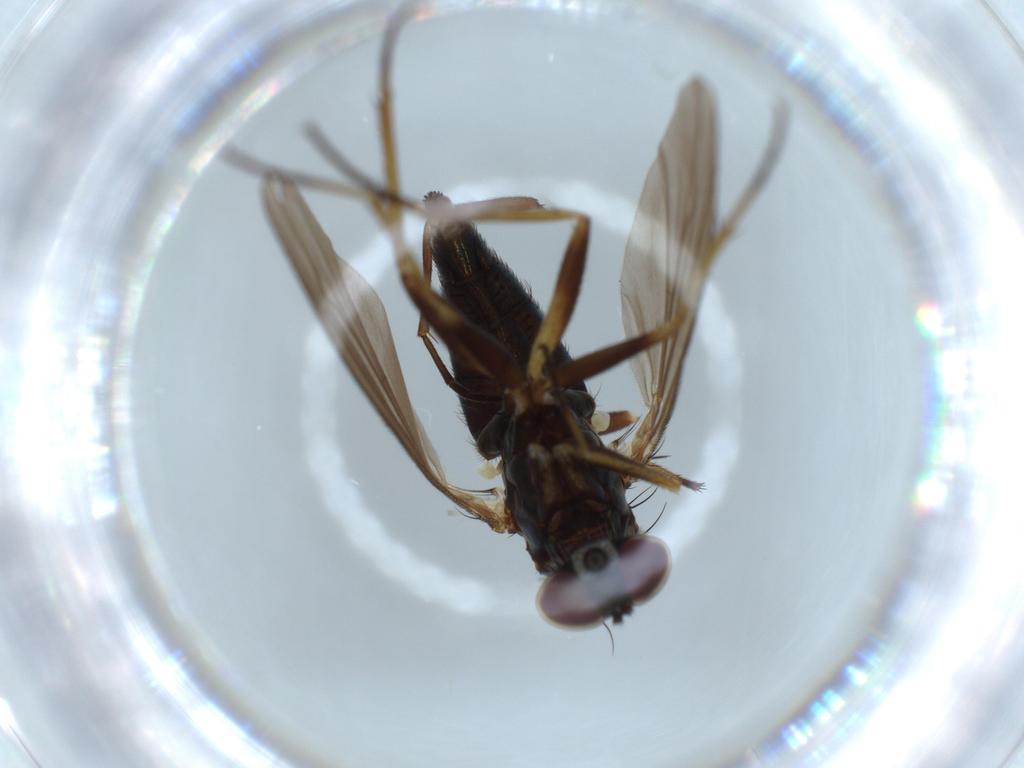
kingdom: Animalia
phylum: Arthropoda
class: Insecta
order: Diptera
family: Dolichopodidae
